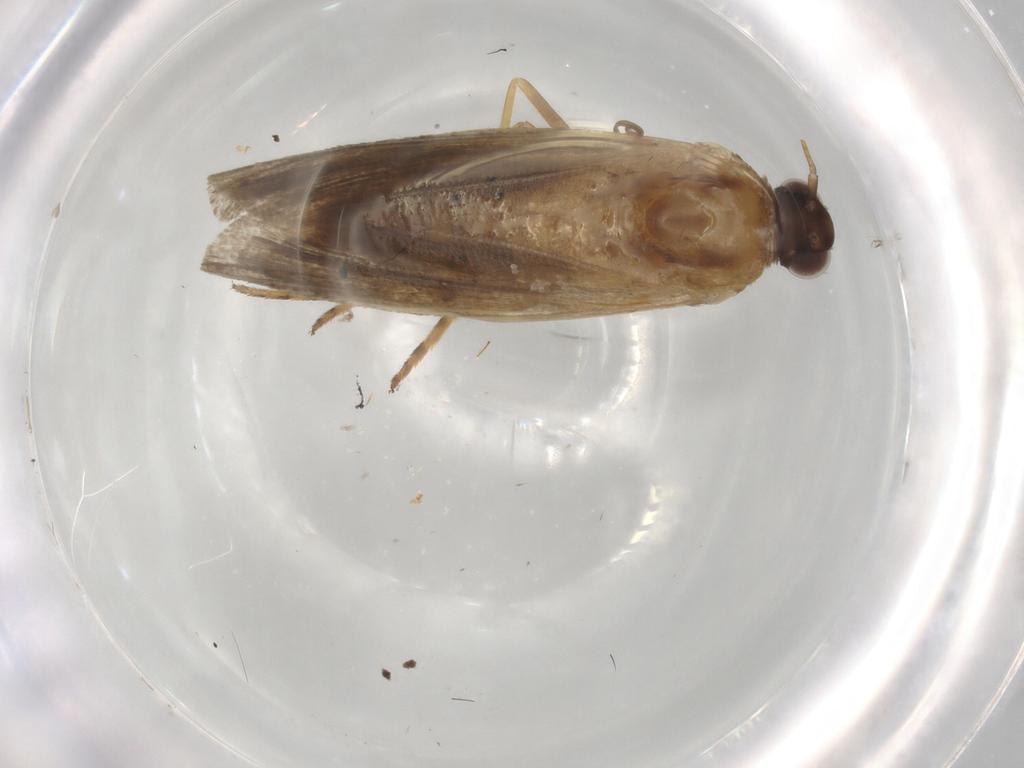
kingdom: Animalia
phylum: Arthropoda
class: Insecta
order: Lepidoptera
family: Noctuidae
